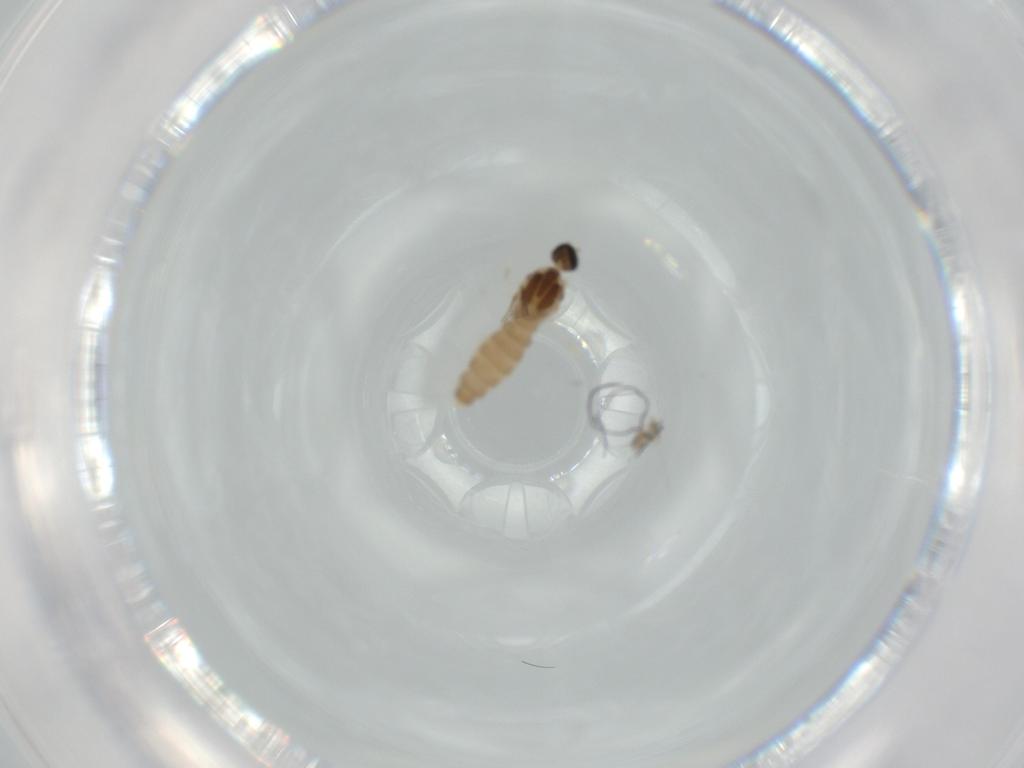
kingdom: Animalia
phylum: Arthropoda
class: Insecta
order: Diptera
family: Cecidomyiidae
